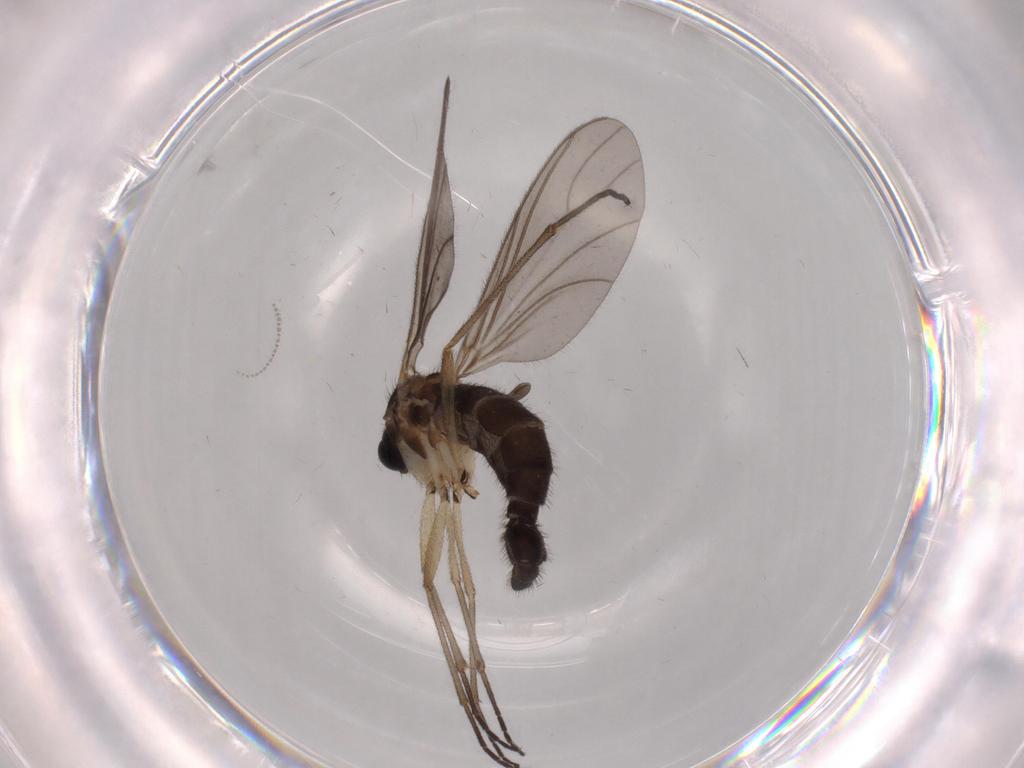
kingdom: Animalia
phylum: Arthropoda
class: Insecta
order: Diptera
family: Sciaridae
